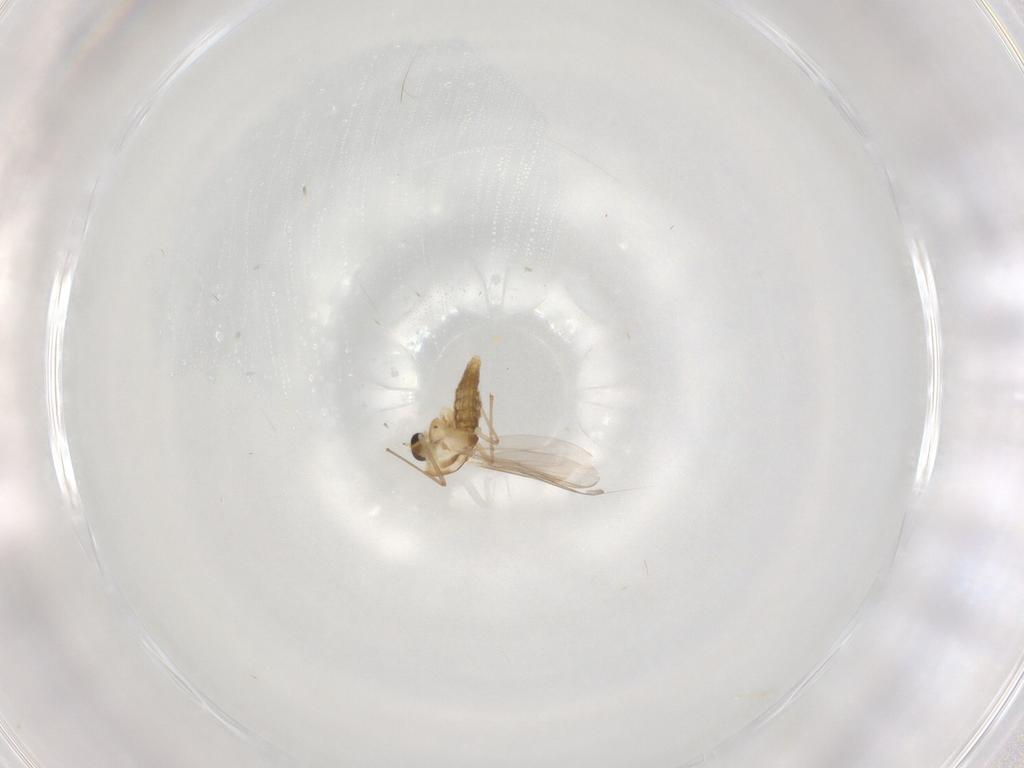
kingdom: Animalia
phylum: Arthropoda
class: Insecta
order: Diptera
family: Chironomidae
